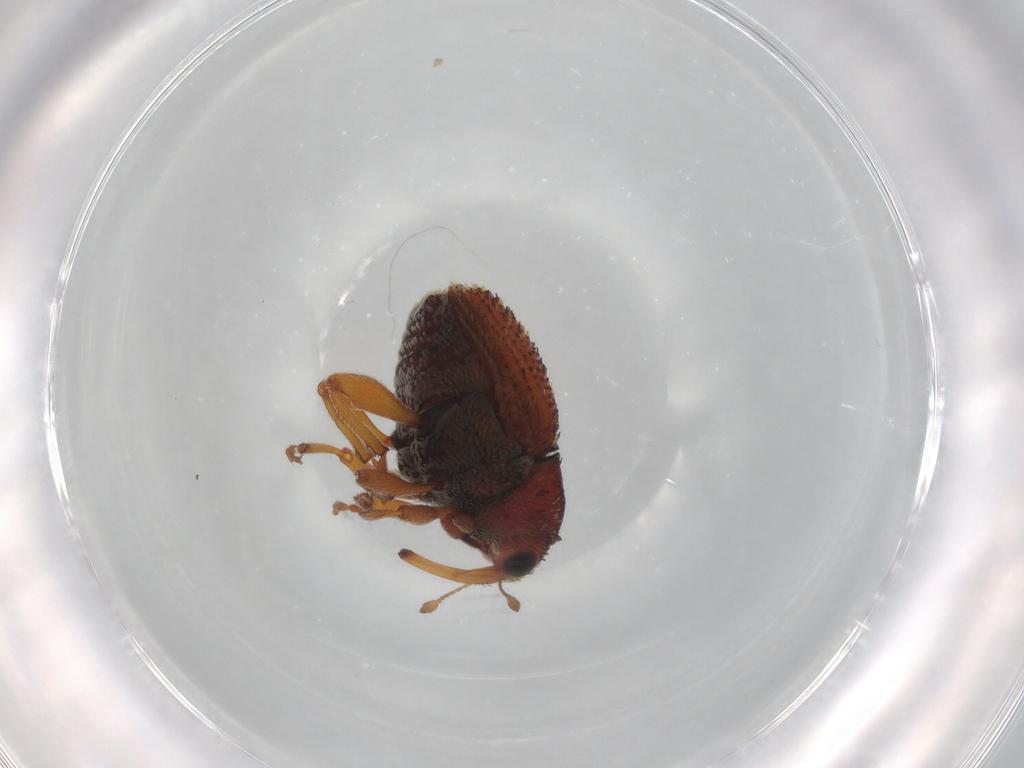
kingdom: Animalia
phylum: Arthropoda
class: Insecta
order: Coleoptera
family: Curculionidae
